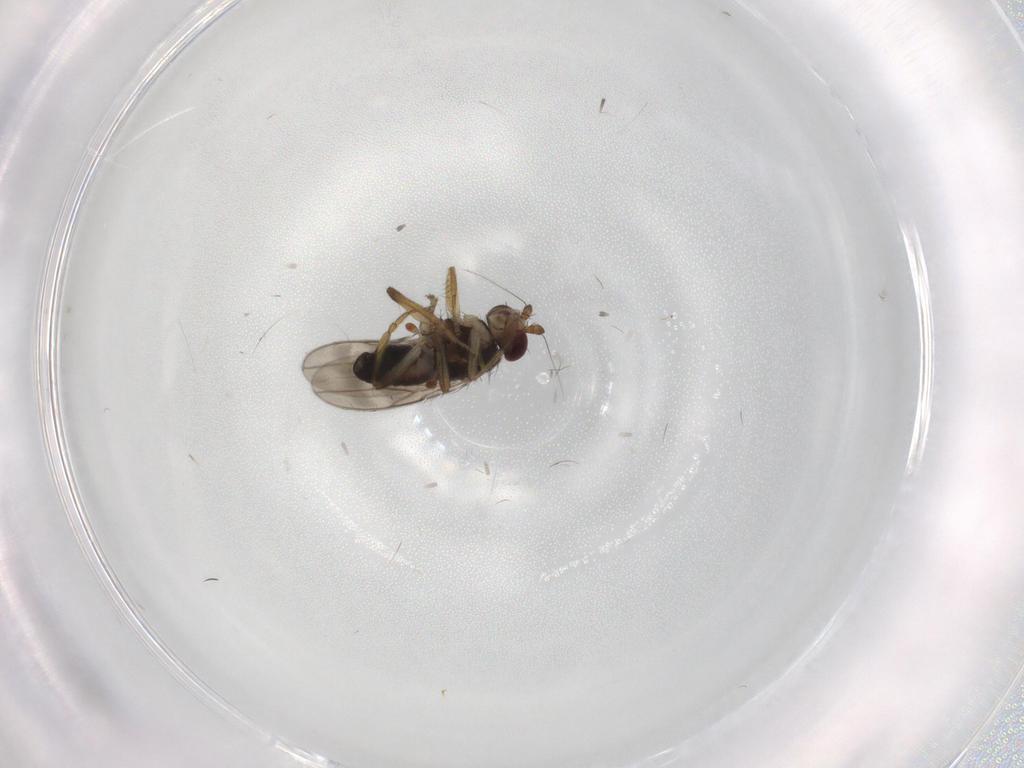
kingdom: Animalia
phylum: Arthropoda
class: Insecta
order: Diptera
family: Sphaeroceridae
